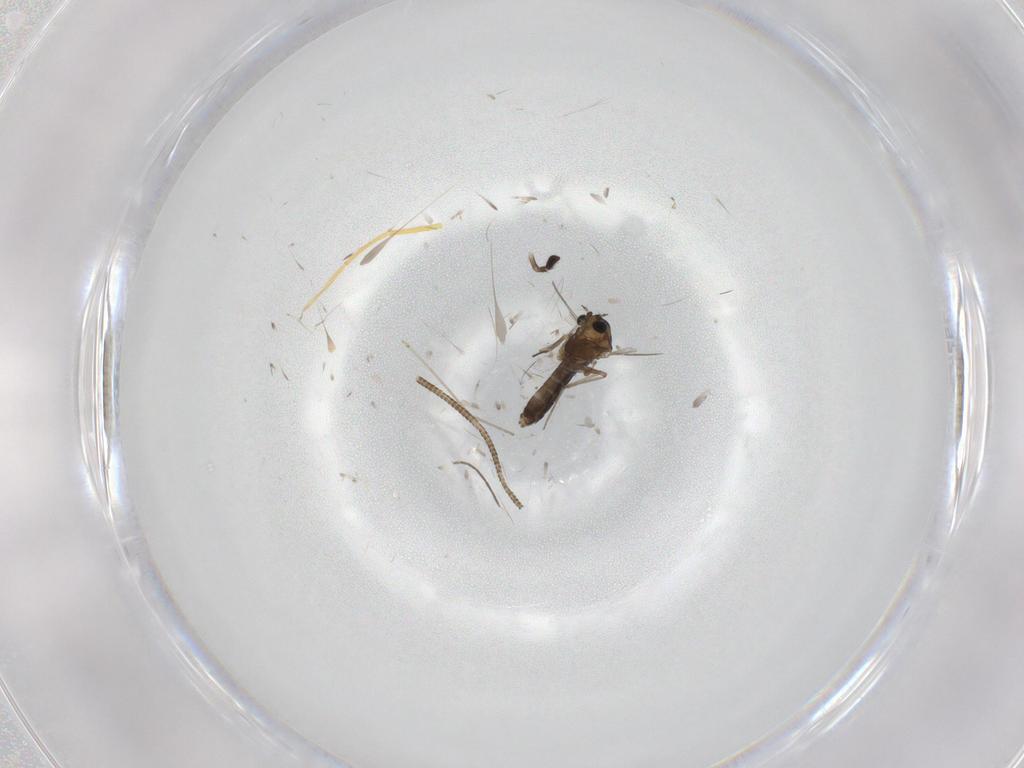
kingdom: Animalia
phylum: Arthropoda
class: Insecta
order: Diptera
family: Chironomidae
